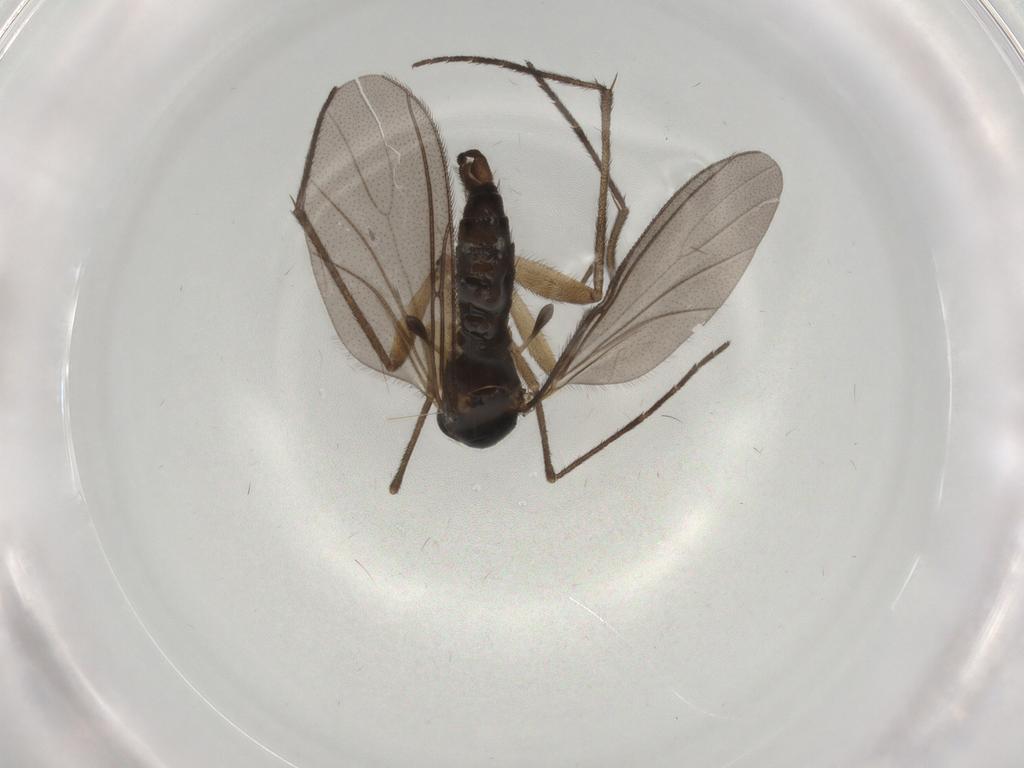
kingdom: Animalia
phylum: Arthropoda
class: Insecta
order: Diptera
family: Sciaridae
